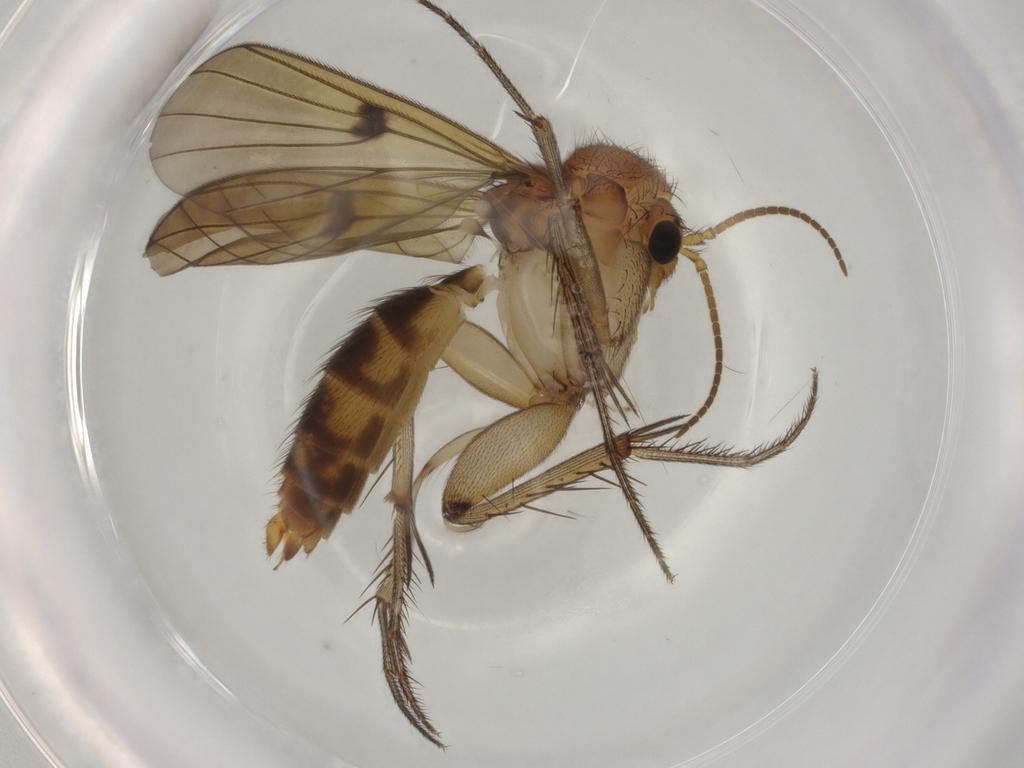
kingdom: Animalia
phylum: Arthropoda
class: Insecta
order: Diptera
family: Mycetophilidae
